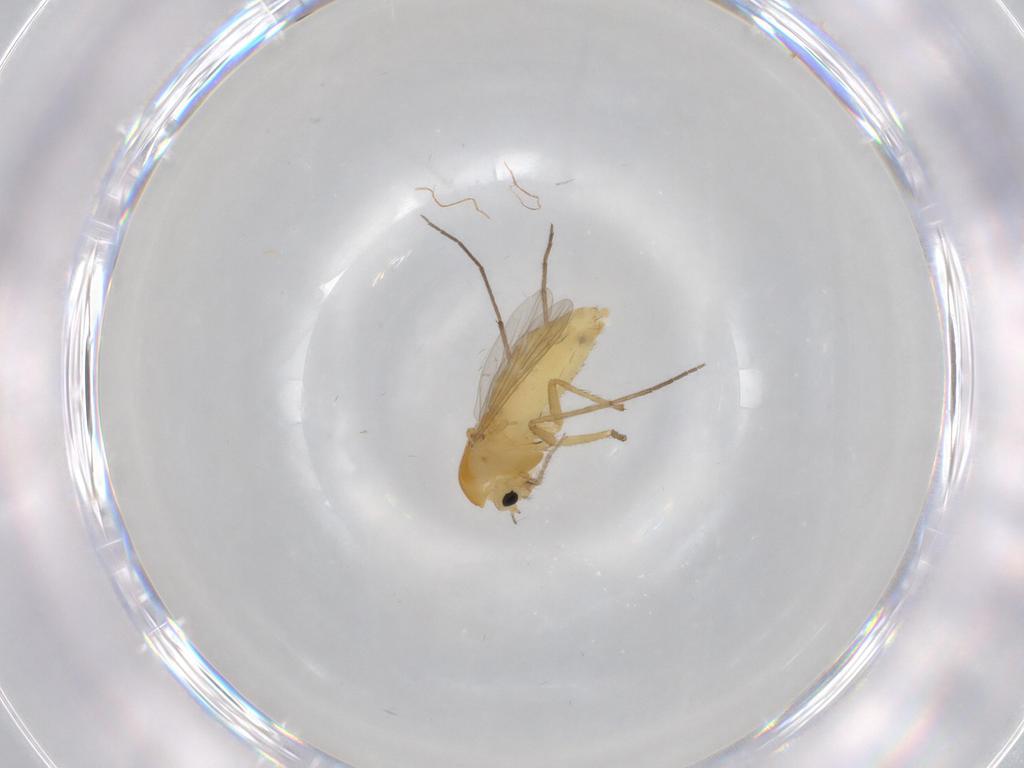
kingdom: Animalia
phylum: Arthropoda
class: Insecta
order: Diptera
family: Chironomidae
